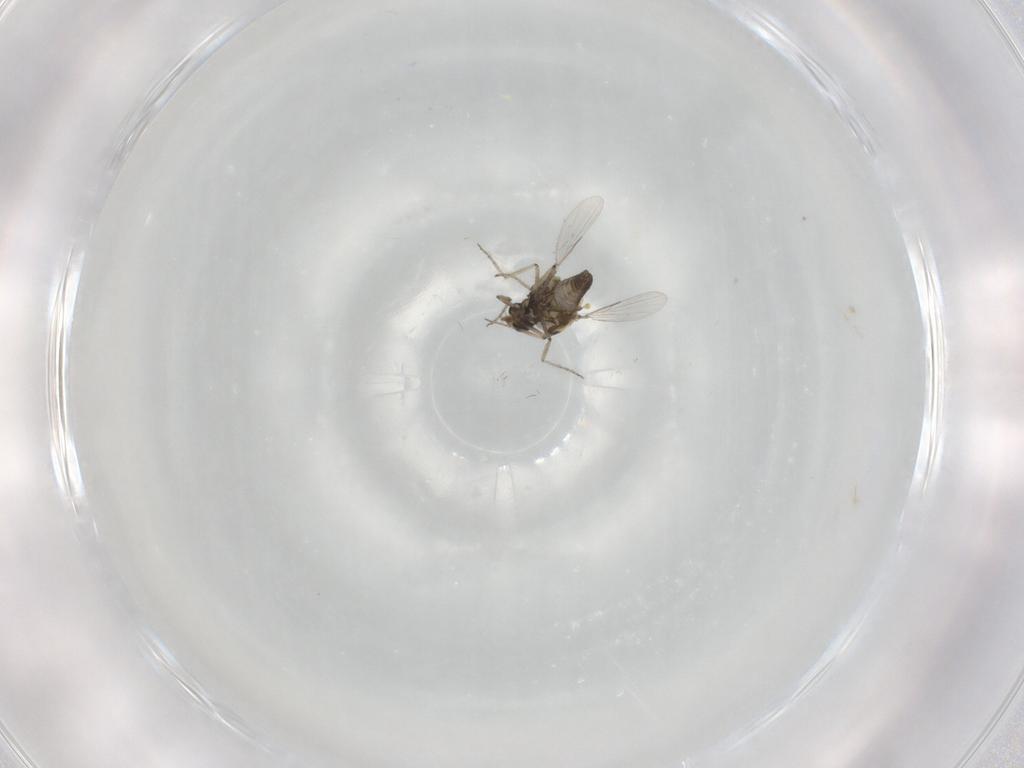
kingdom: Animalia
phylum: Arthropoda
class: Insecta
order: Diptera
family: Ceratopogonidae
